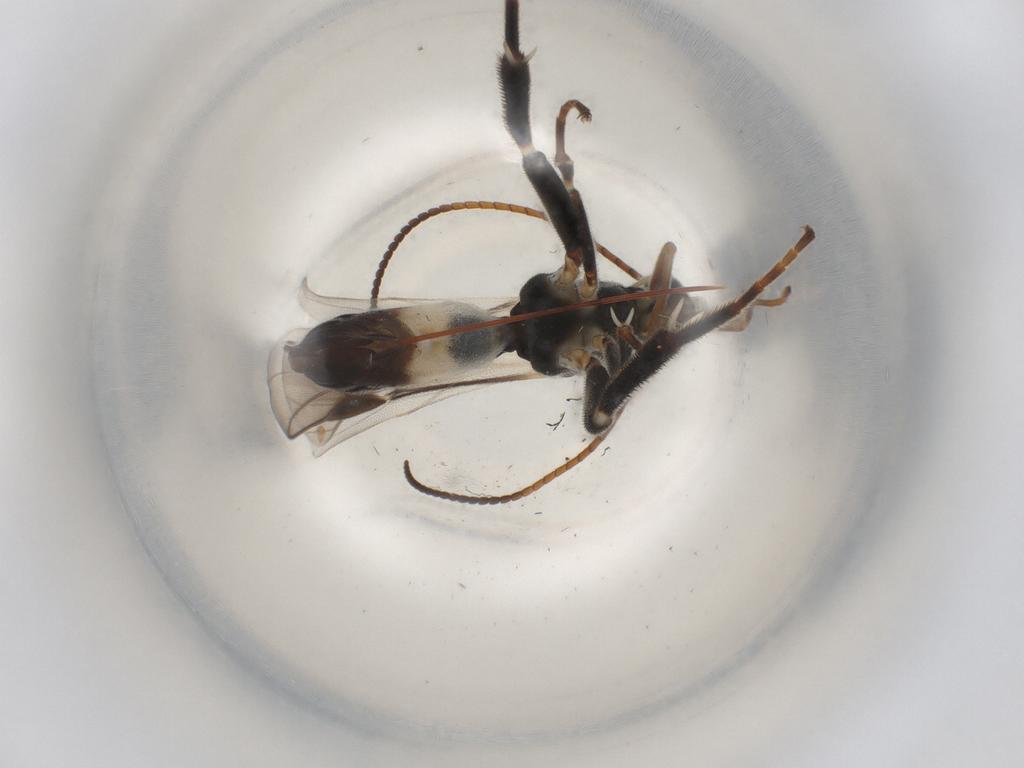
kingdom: Animalia
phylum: Arthropoda
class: Insecta
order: Hymenoptera
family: Braconidae
